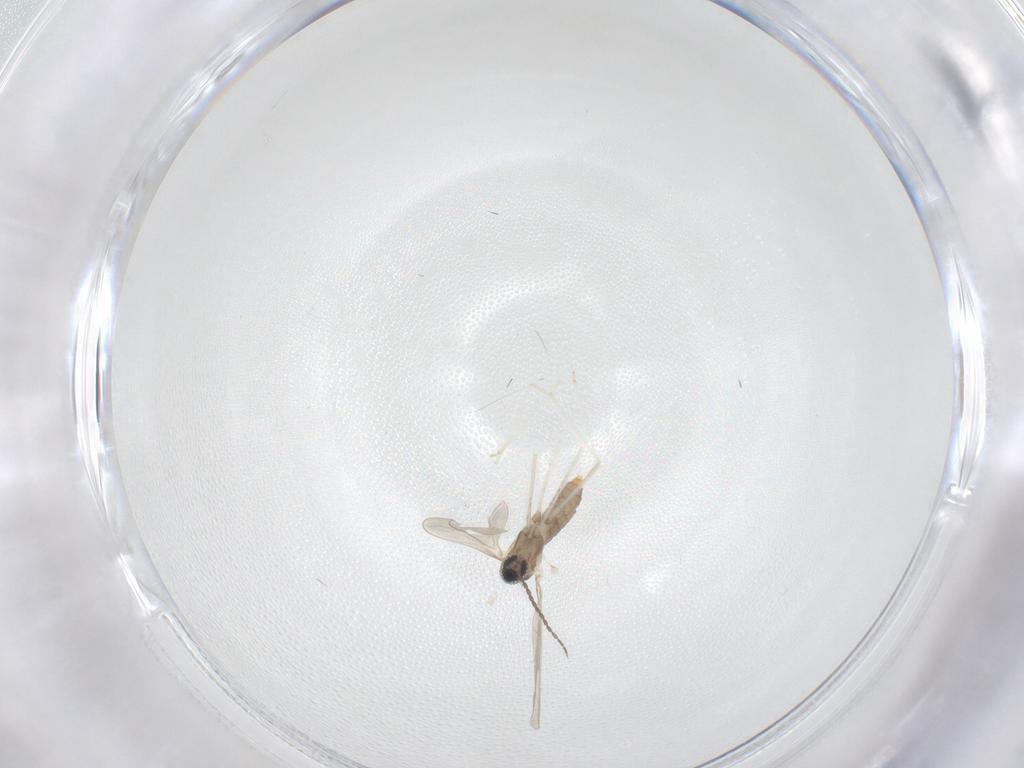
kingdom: Animalia
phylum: Arthropoda
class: Insecta
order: Diptera
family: Cecidomyiidae
